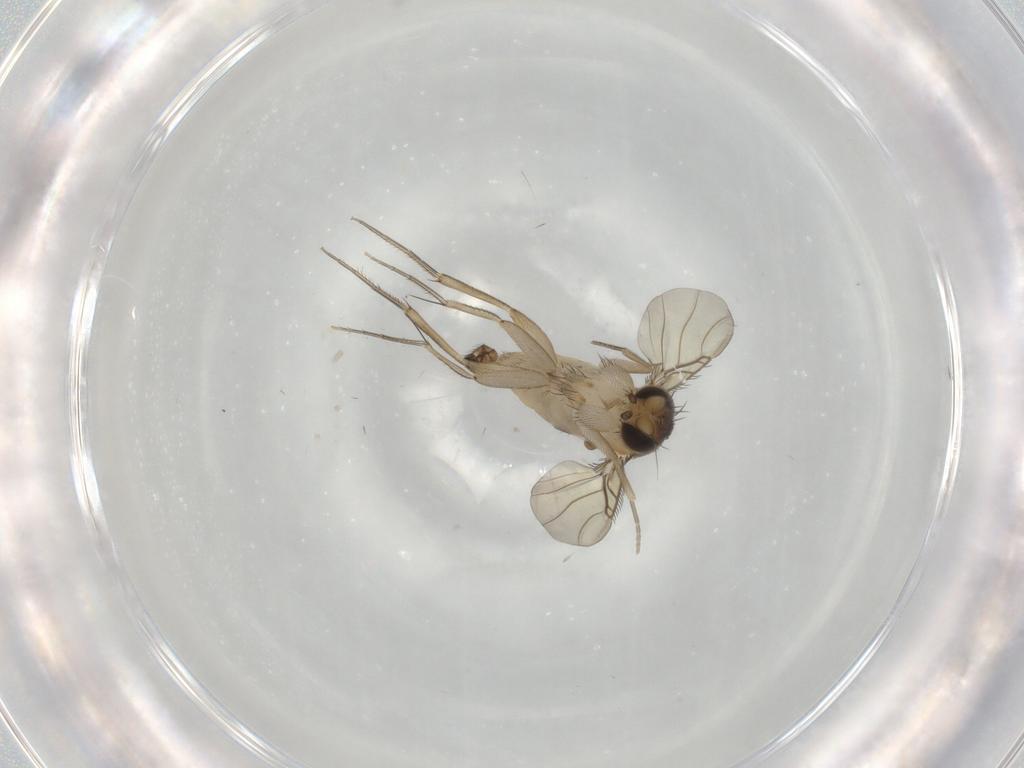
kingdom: Animalia
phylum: Arthropoda
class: Insecta
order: Diptera
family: Phoridae
